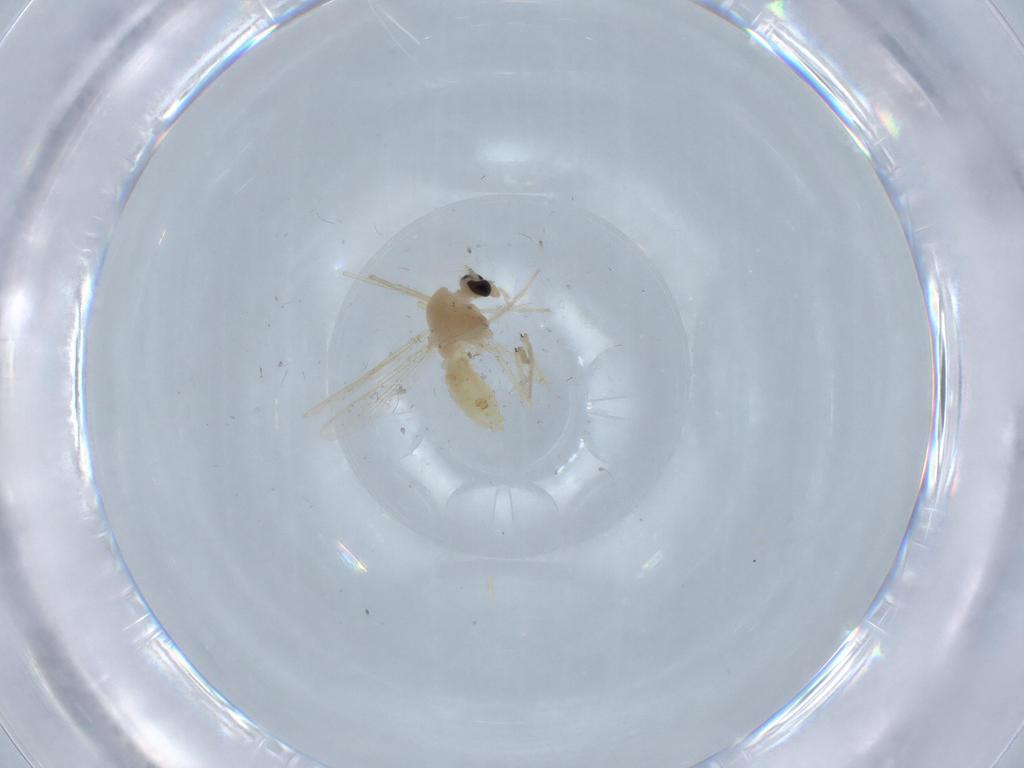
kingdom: Animalia
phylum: Arthropoda
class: Insecta
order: Diptera
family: Chironomidae
